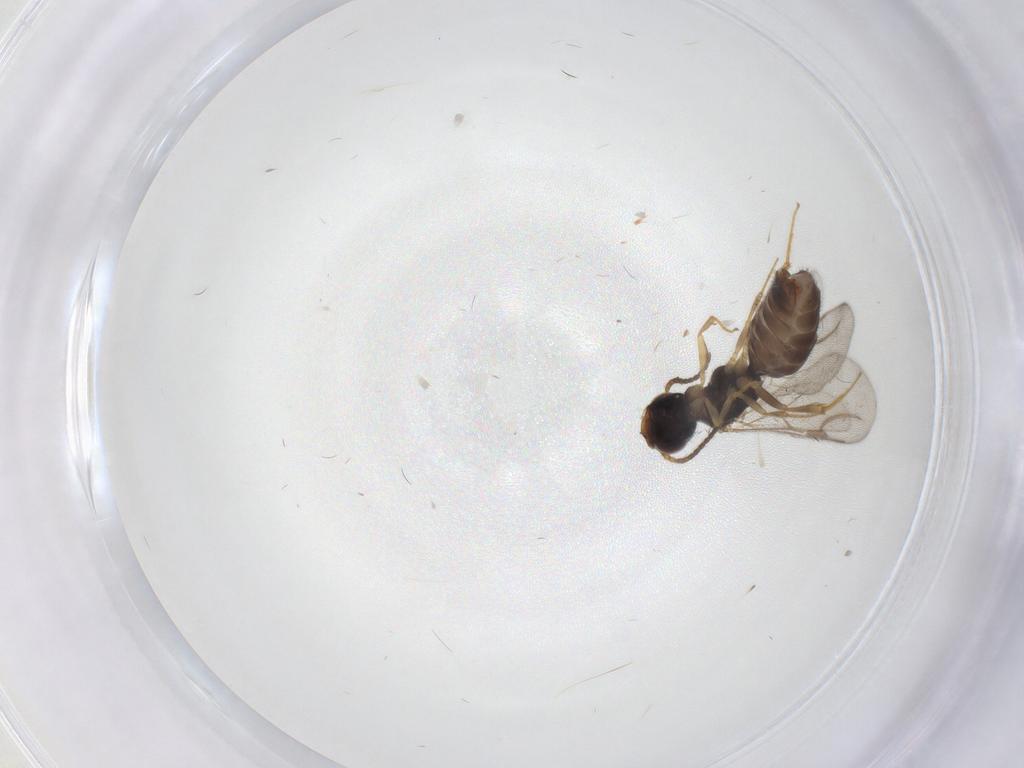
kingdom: Animalia
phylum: Arthropoda
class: Insecta
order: Hymenoptera
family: Bethylidae
